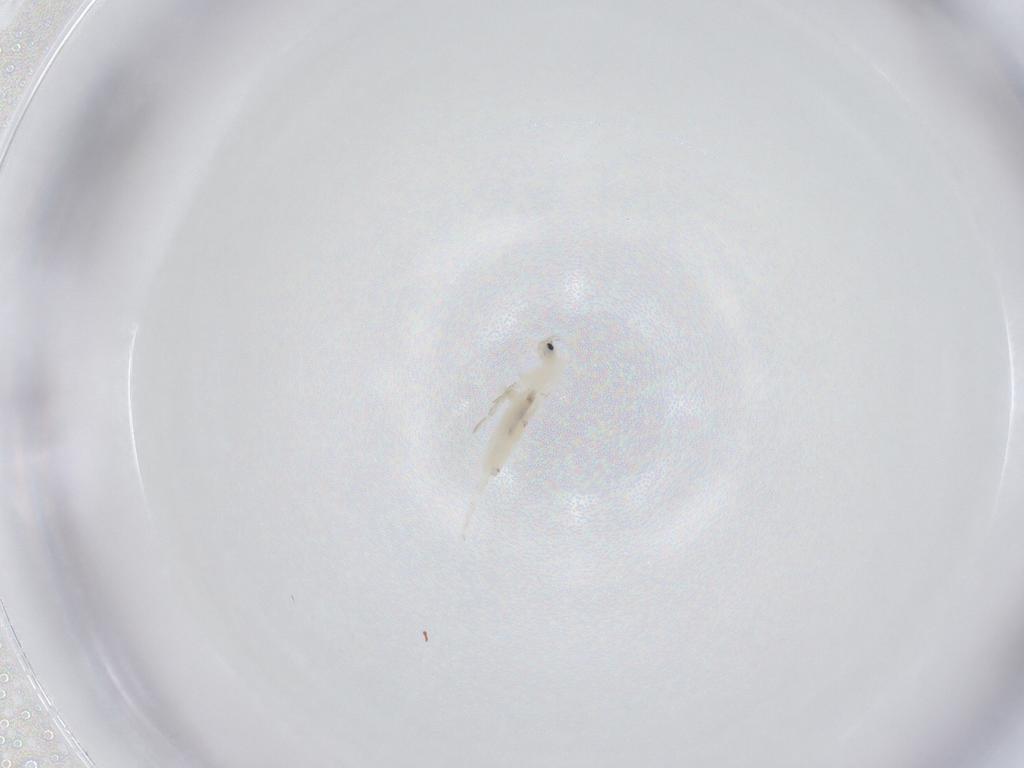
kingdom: Animalia
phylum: Arthropoda
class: Collembola
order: Entomobryomorpha
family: Entomobryidae
